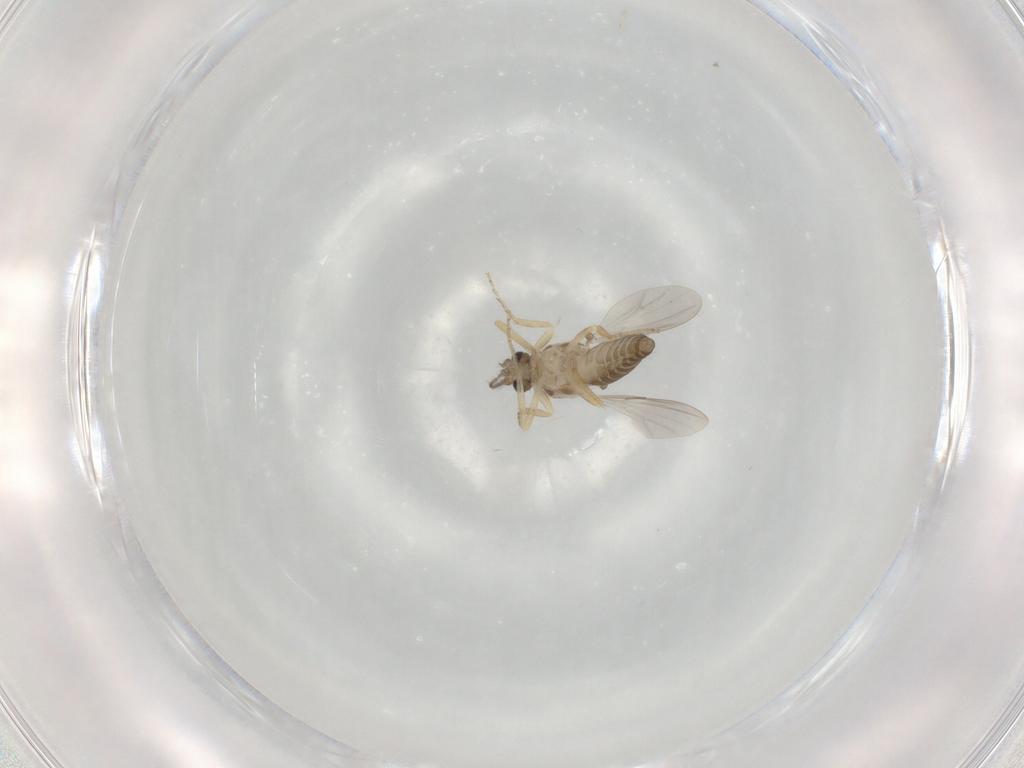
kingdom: Animalia
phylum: Arthropoda
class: Insecta
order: Diptera
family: Ceratopogonidae
